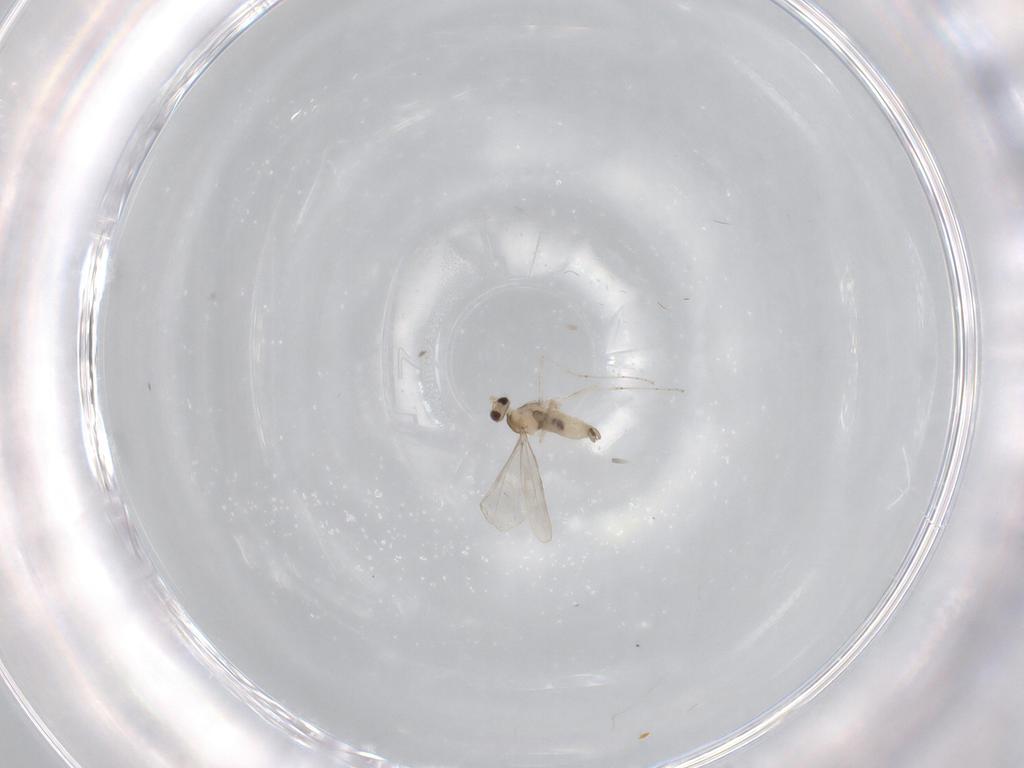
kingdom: Animalia
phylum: Arthropoda
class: Insecta
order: Diptera
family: Cecidomyiidae
